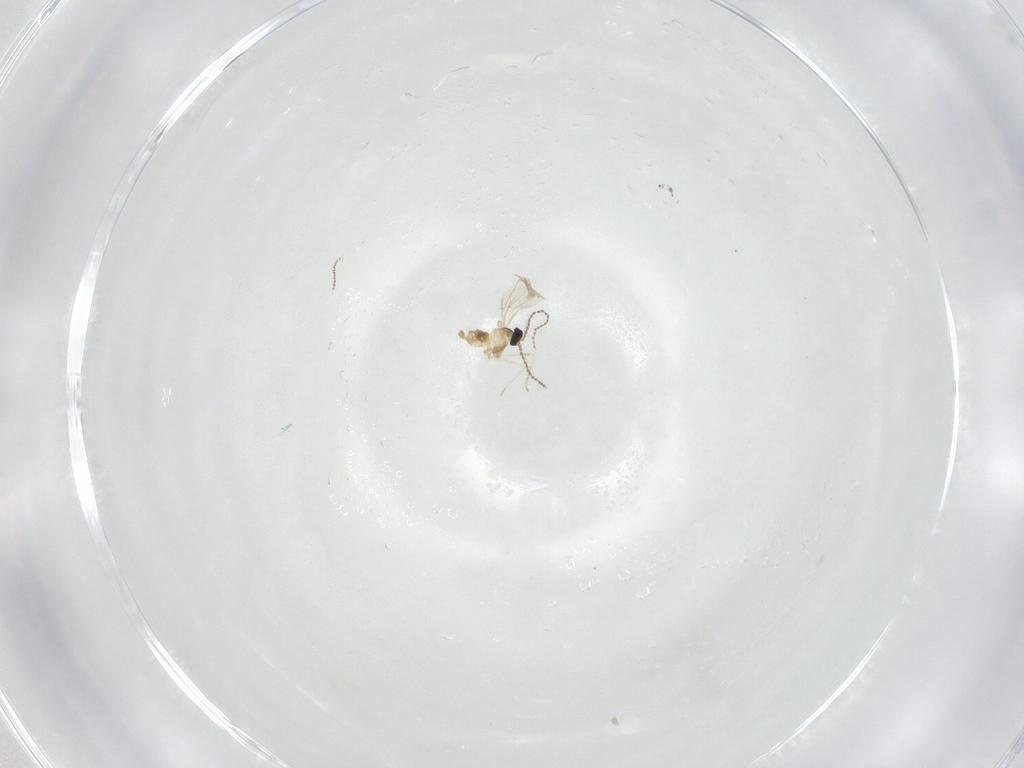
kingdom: Animalia
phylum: Arthropoda
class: Insecta
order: Diptera
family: Cecidomyiidae
